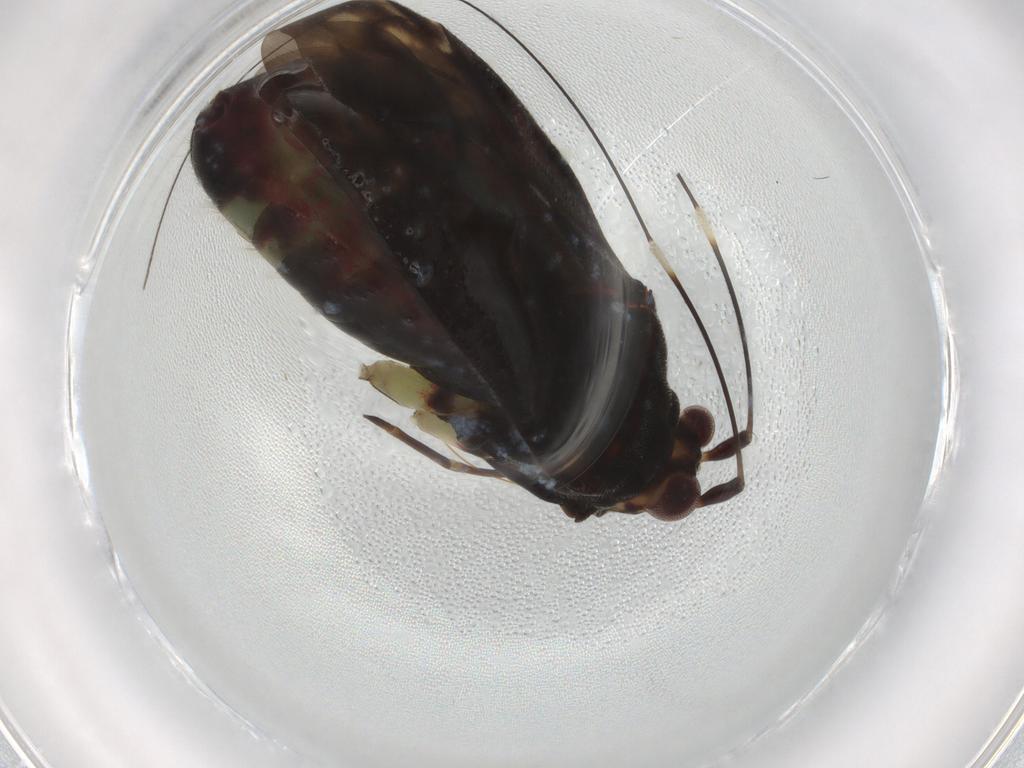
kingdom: Animalia
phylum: Arthropoda
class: Insecta
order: Hemiptera
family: Miridae
